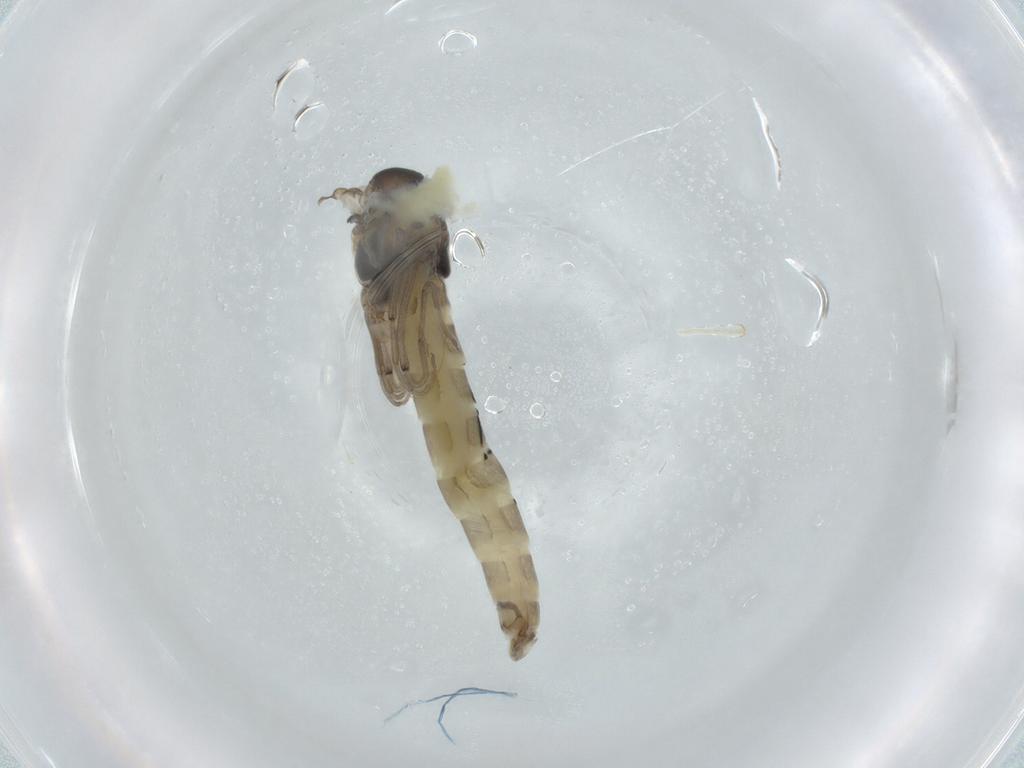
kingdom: Animalia
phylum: Arthropoda
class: Insecta
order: Diptera
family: Chironomidae
